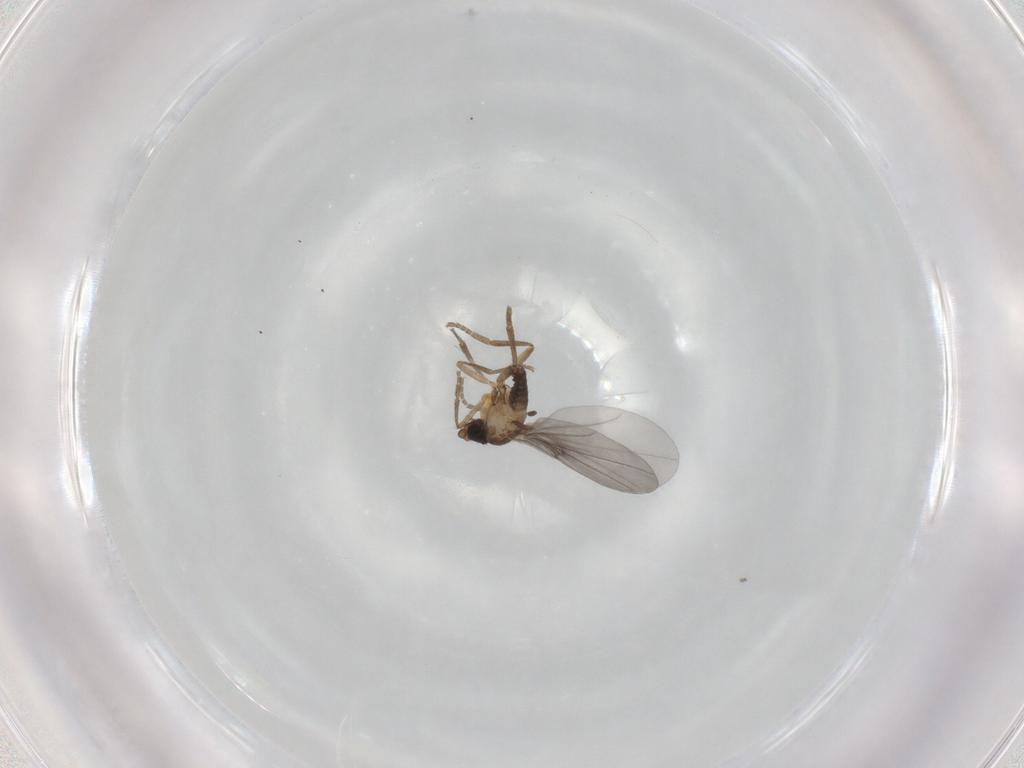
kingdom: Animalia
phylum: Arthropoda
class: Insecta
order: Diptera
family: Phoridae
